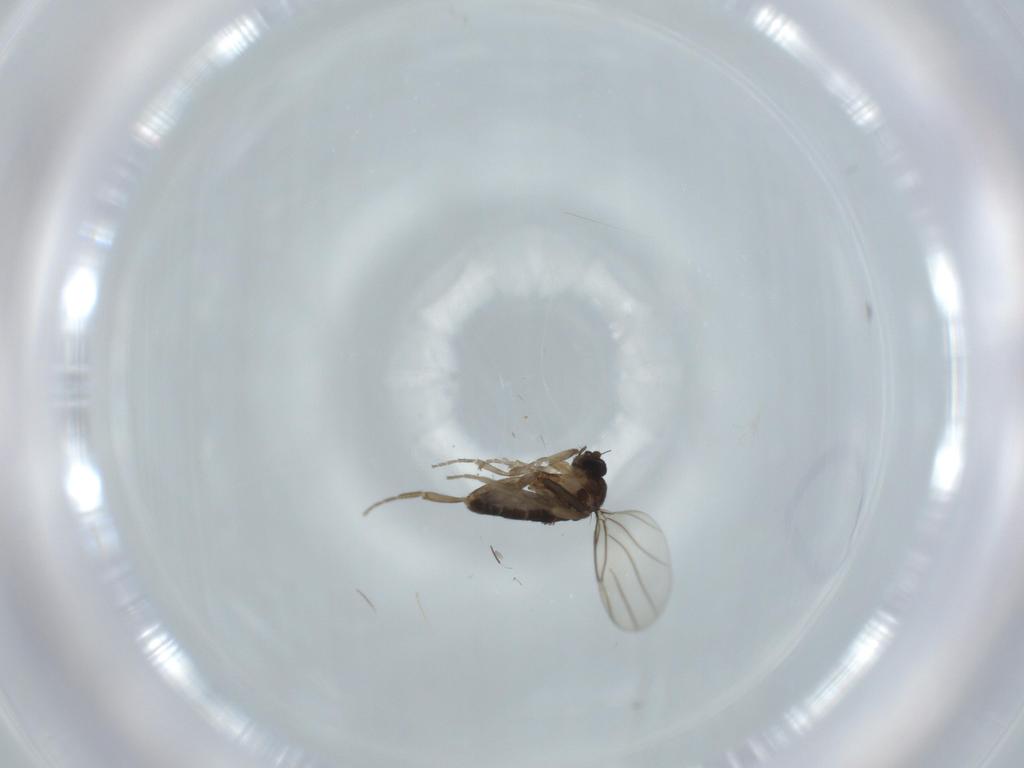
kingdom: Animalia
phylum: Arthropoda
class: Insecta
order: Diptera
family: Phoridae
